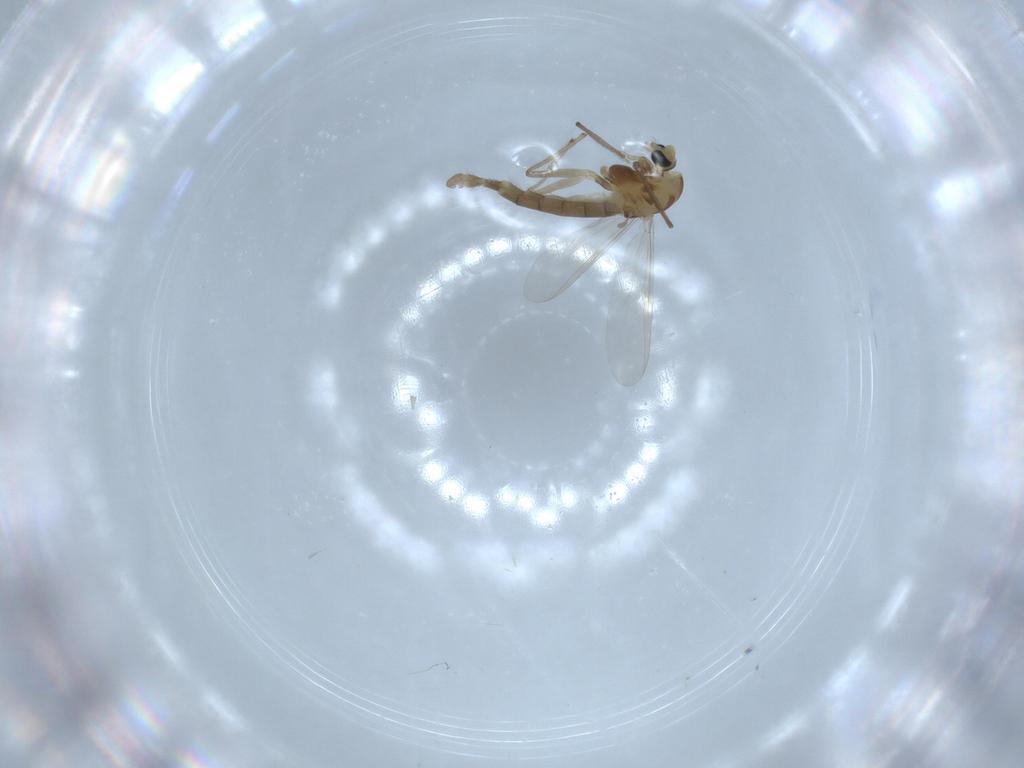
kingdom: Animalia
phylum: Arthropoda
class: Insecta
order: Diptera
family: Chironomidae
